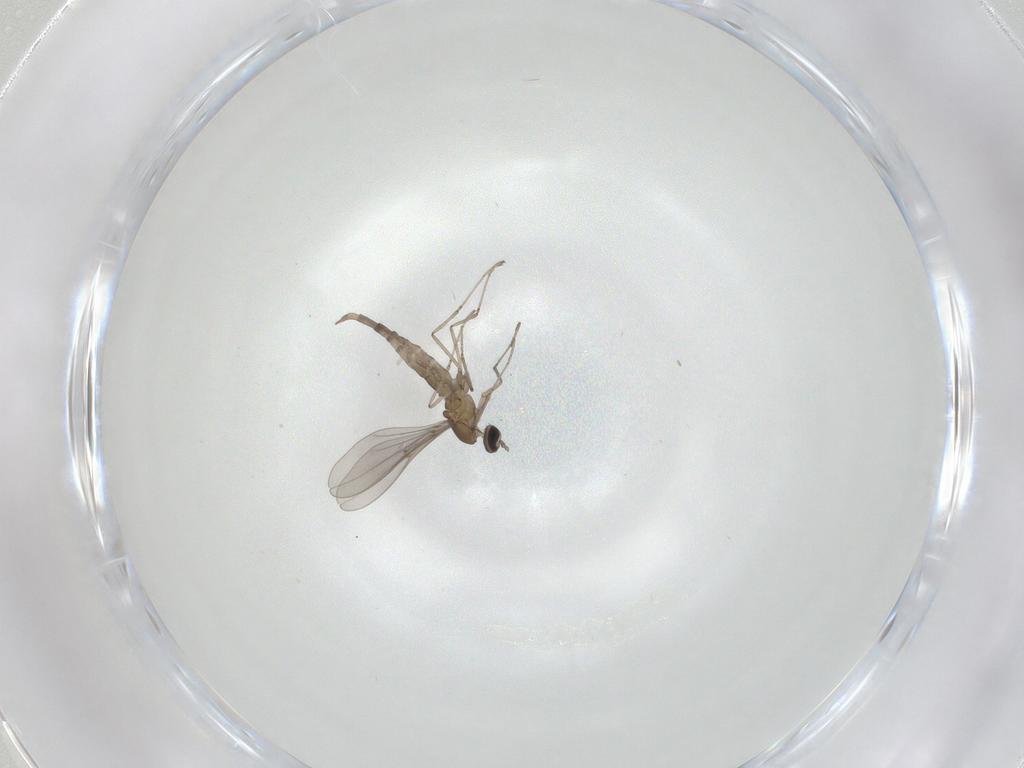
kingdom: Animalia
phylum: Arthropoda
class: Insecta
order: Diptera
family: Cecidomyiidae
